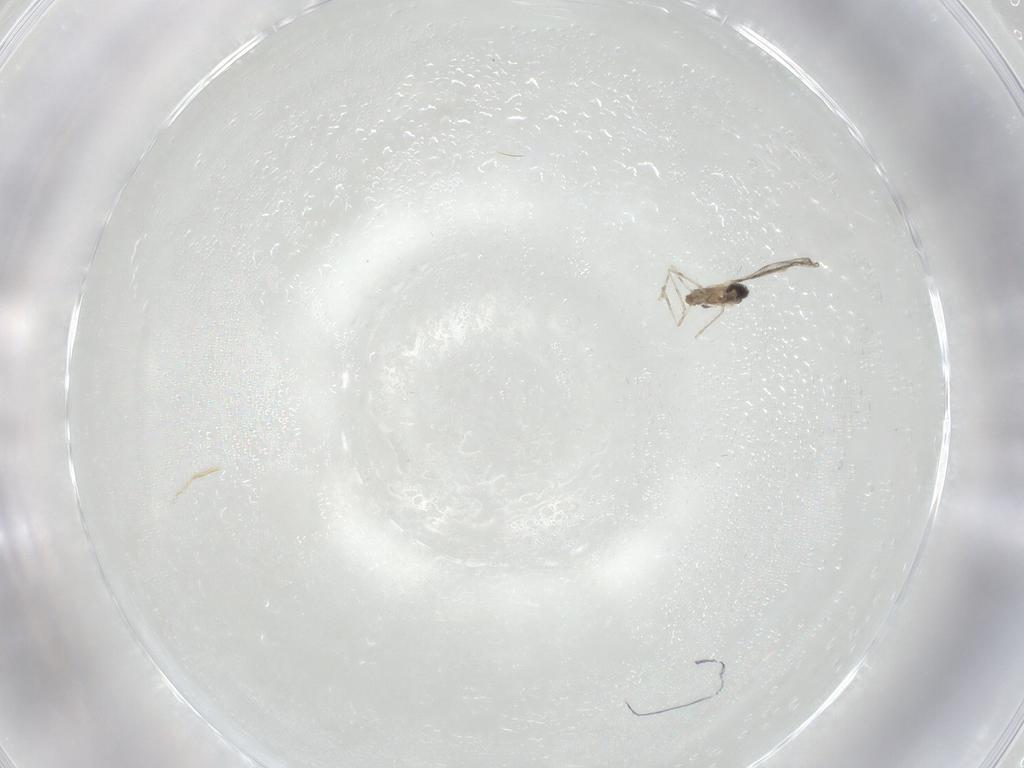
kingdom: Animalia
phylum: Arthropoda
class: Insecta
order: Diptera
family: Cecidomyiidae
